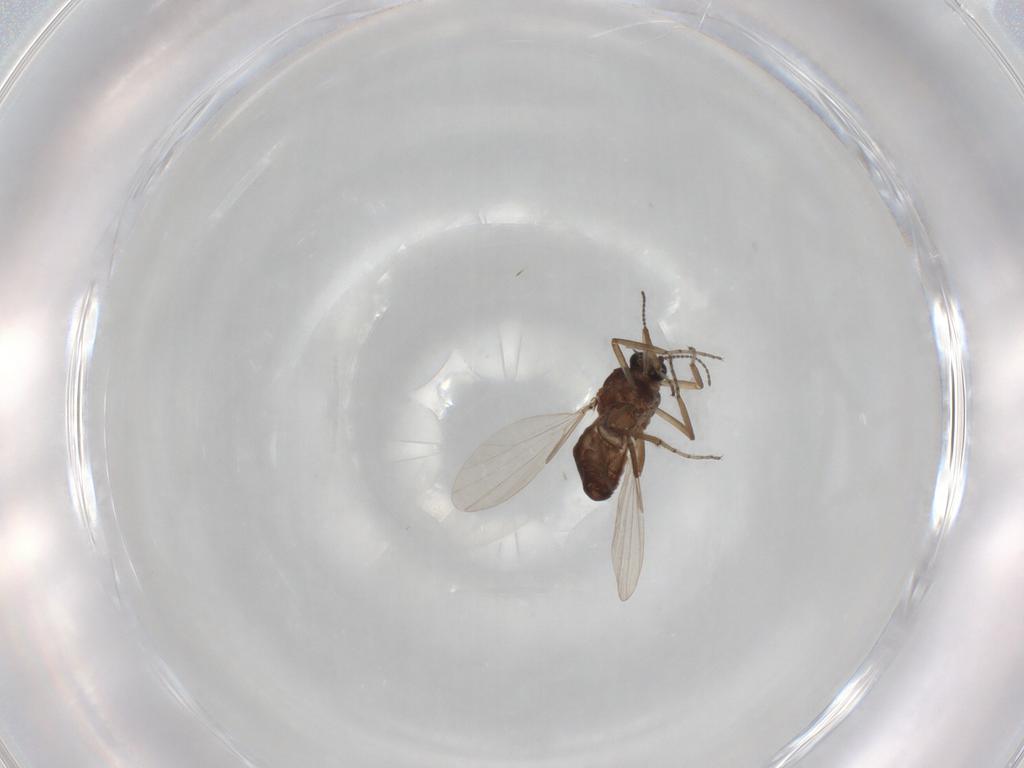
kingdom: Animalia
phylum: Arthropoda
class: Insecta
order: Diptera
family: Ceratopogonidae
